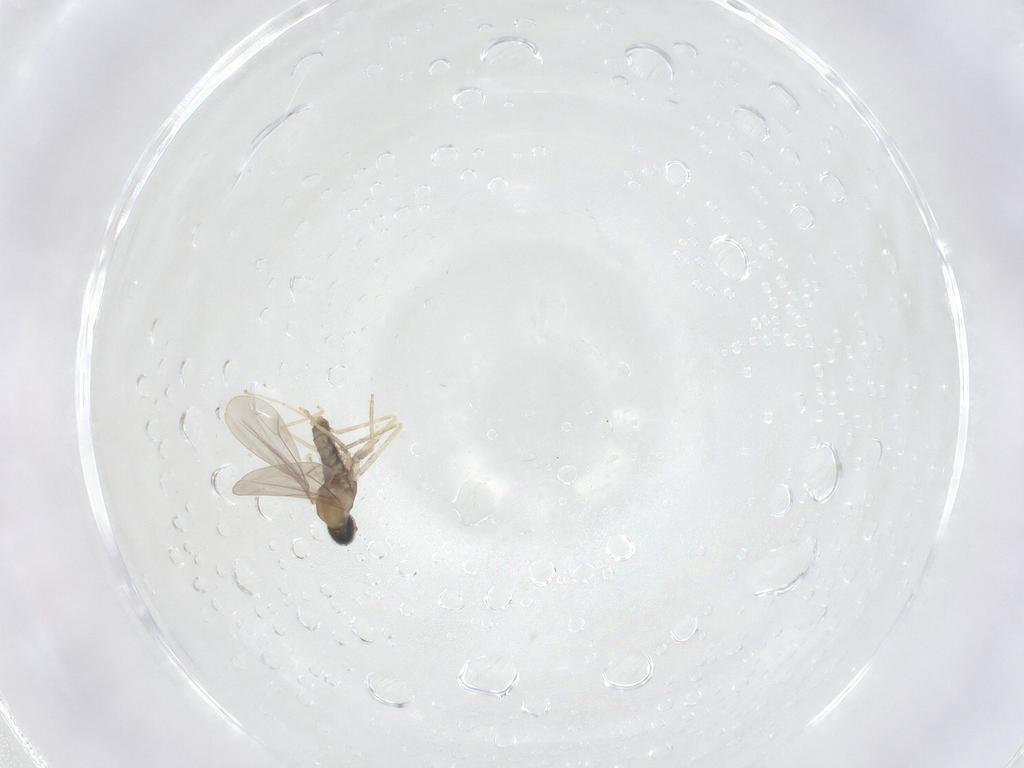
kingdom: Animalia
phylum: Arthropoda
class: Insecta
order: Diptera
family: Cecidomyiidae
